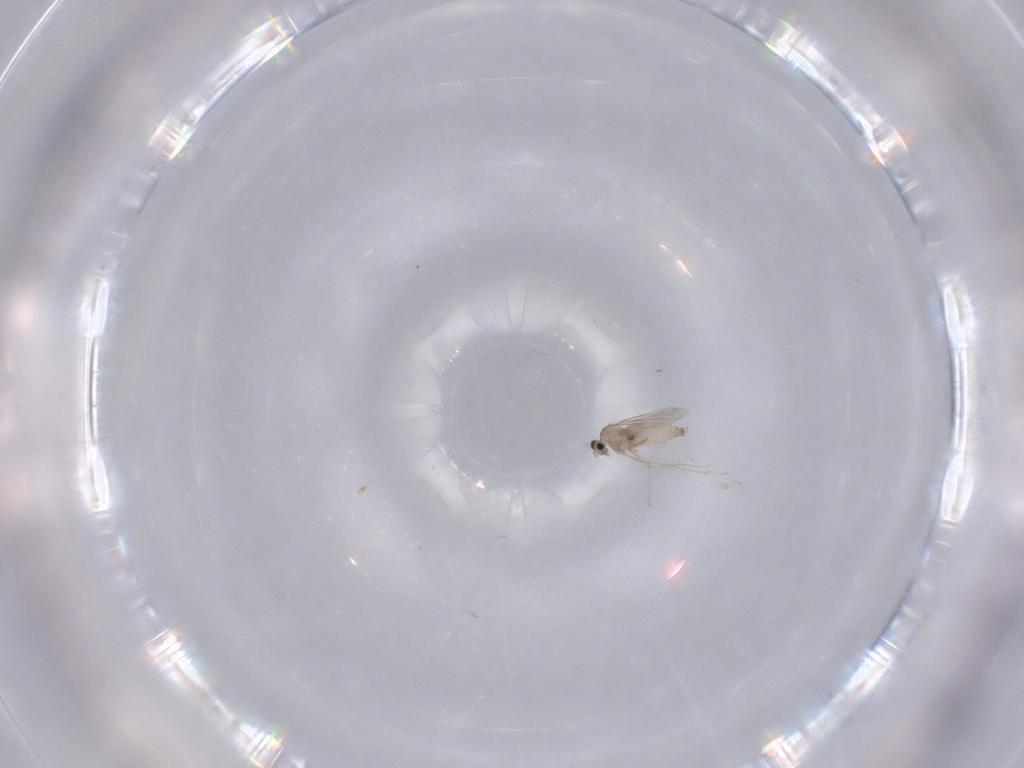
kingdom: Animalia
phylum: Arthropoda
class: Insecta
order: Diptera
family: Cecidomyiidae
